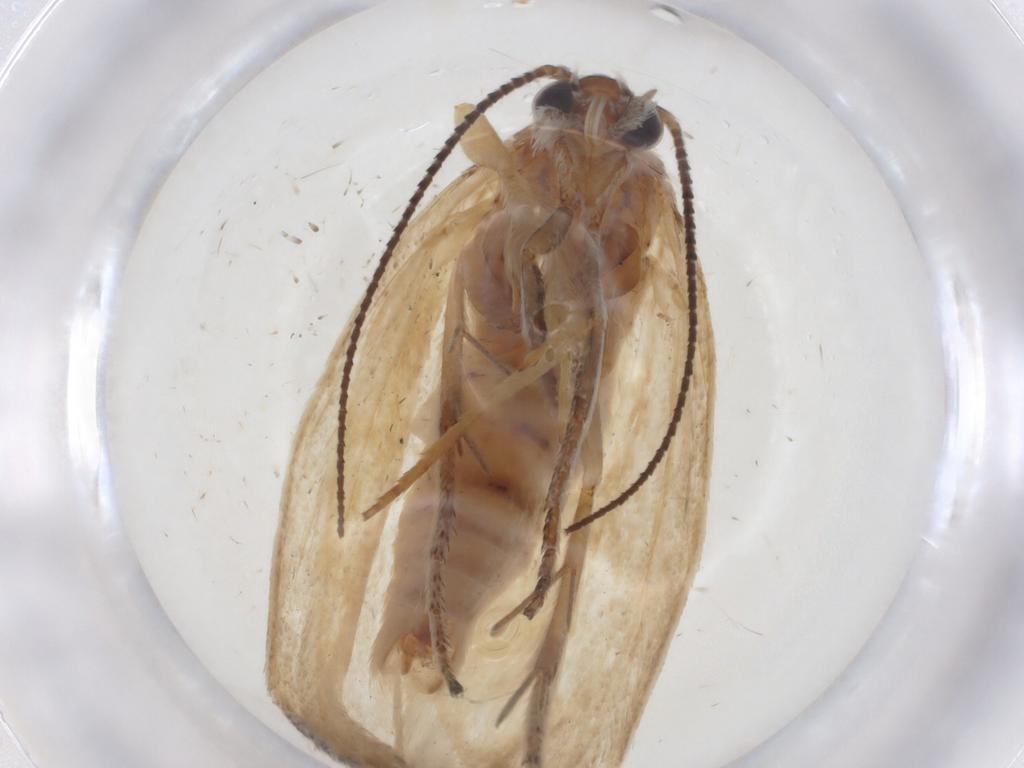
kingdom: Animalia
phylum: Arthropoda
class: Insecta
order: Lepidoptera
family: Ypsolophidae
